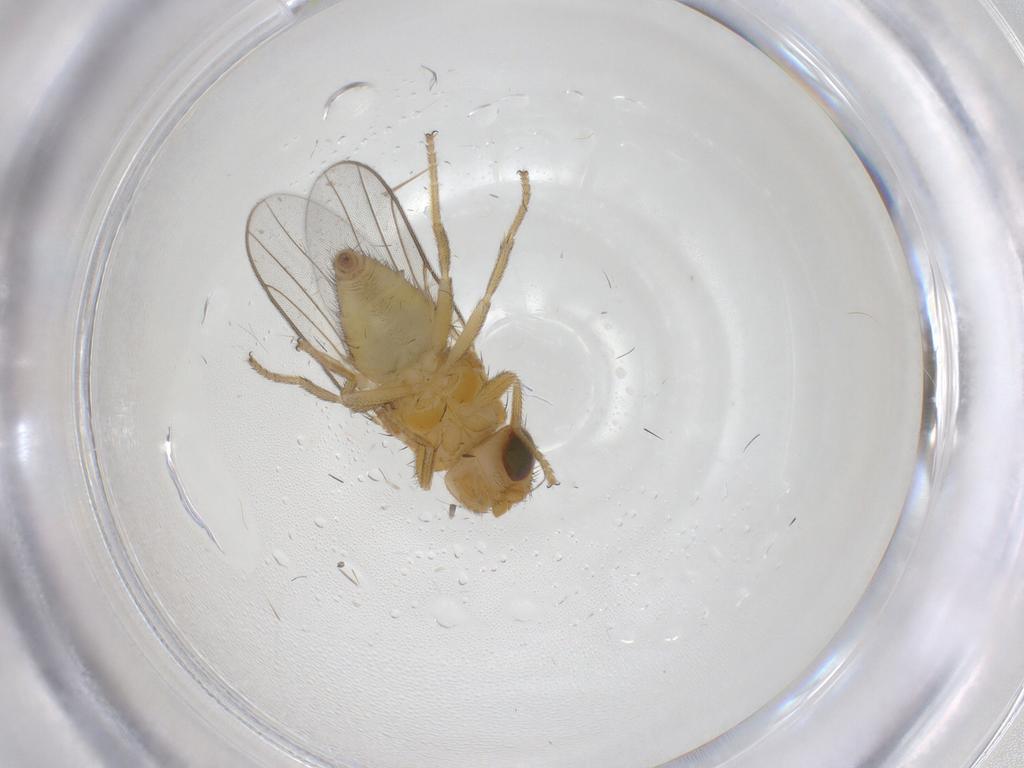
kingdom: Animalia
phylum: Arthropoda
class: Insecta
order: Diptera
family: Chloropidae
